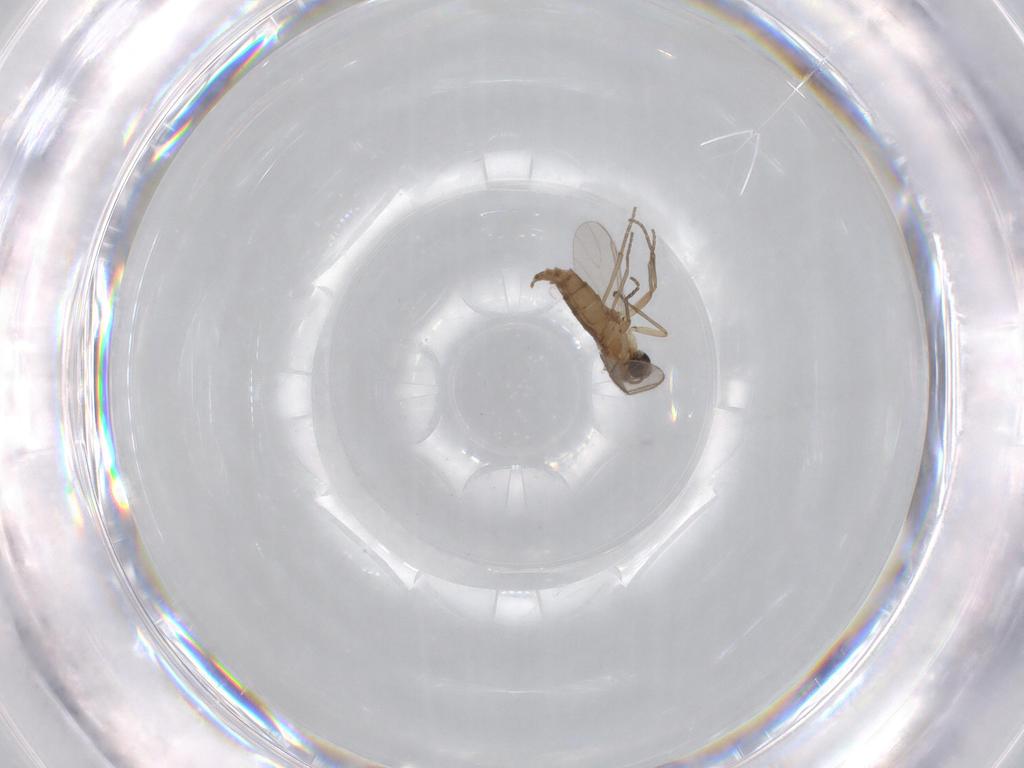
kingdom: Animalia
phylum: Arthropoda
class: Insecta
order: Diptera
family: Sciaridae
